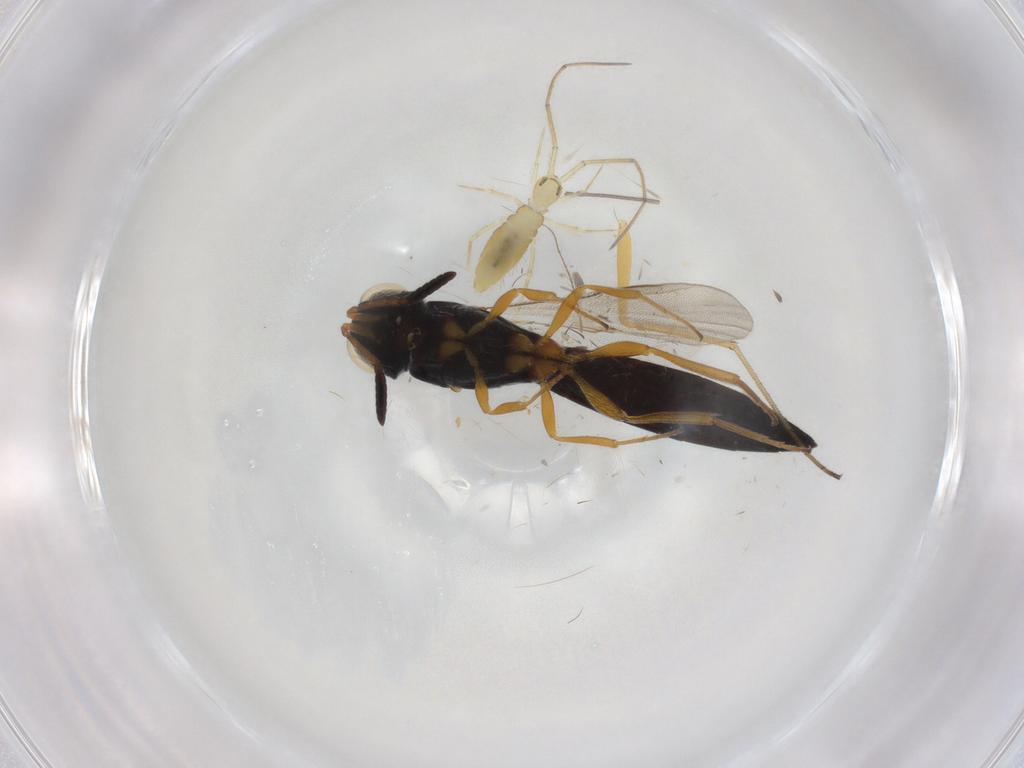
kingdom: Animalia
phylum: Arthropoda
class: Insecta
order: Hymenoptera
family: Scelionidae
